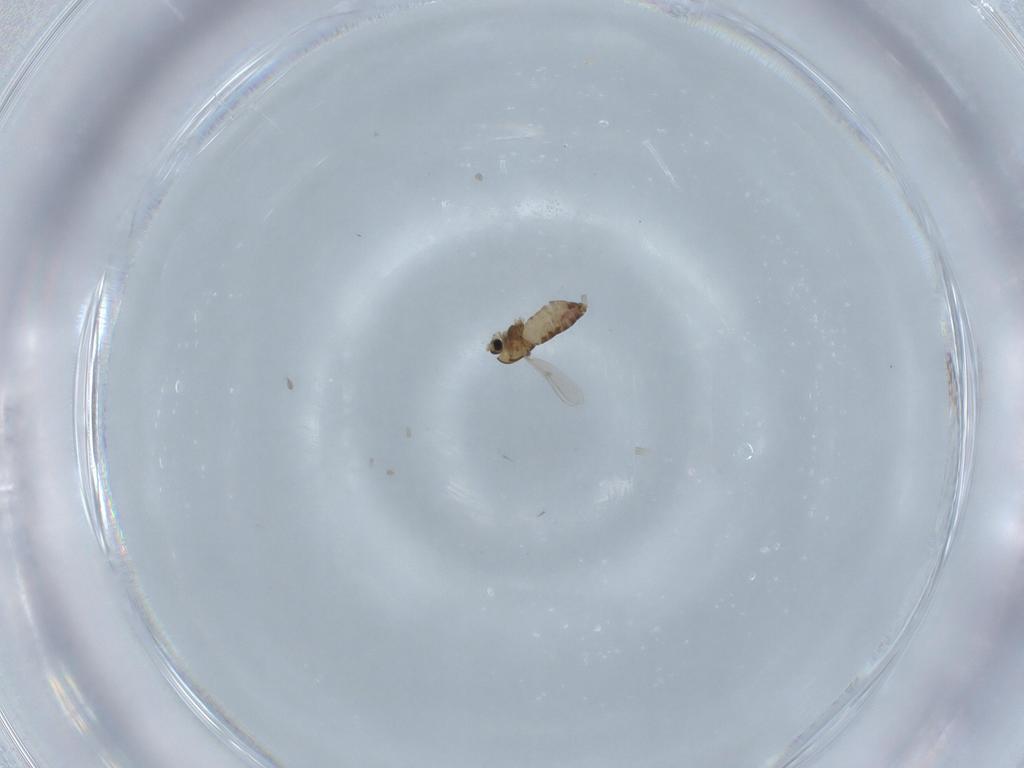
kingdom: Animalia
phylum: Arthropoda
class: Insecta
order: Diptera
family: Chironomidae
